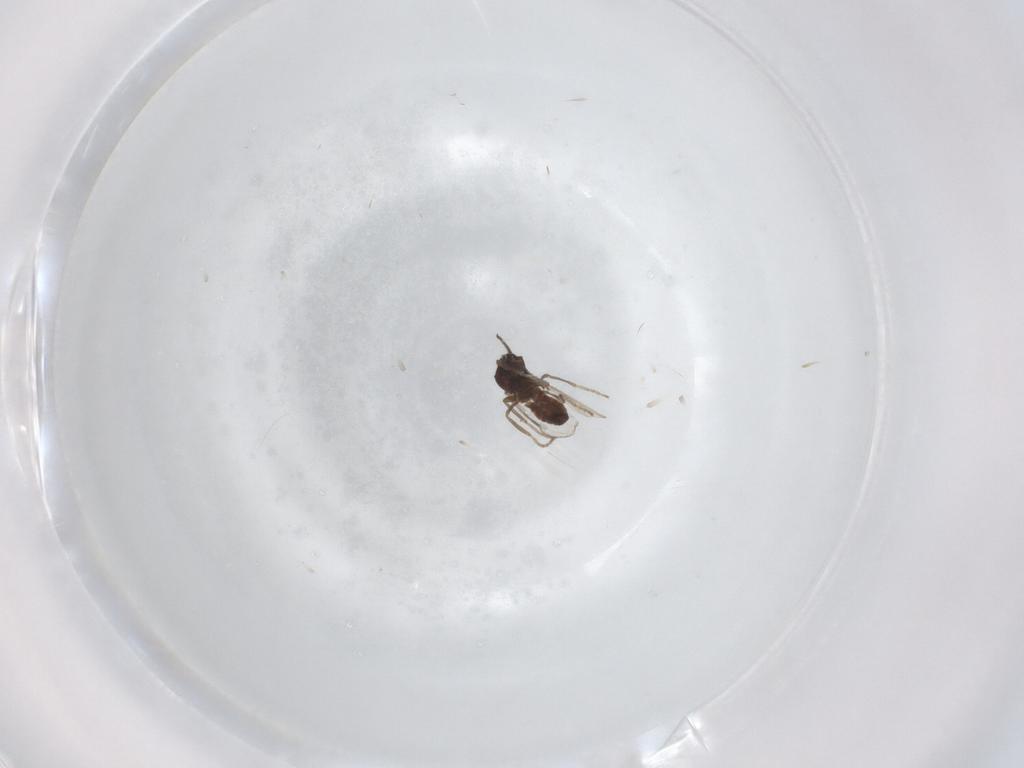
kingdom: Animalia
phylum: Arthropoda
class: Insecta
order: Diptera
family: Ceratopogonidae
